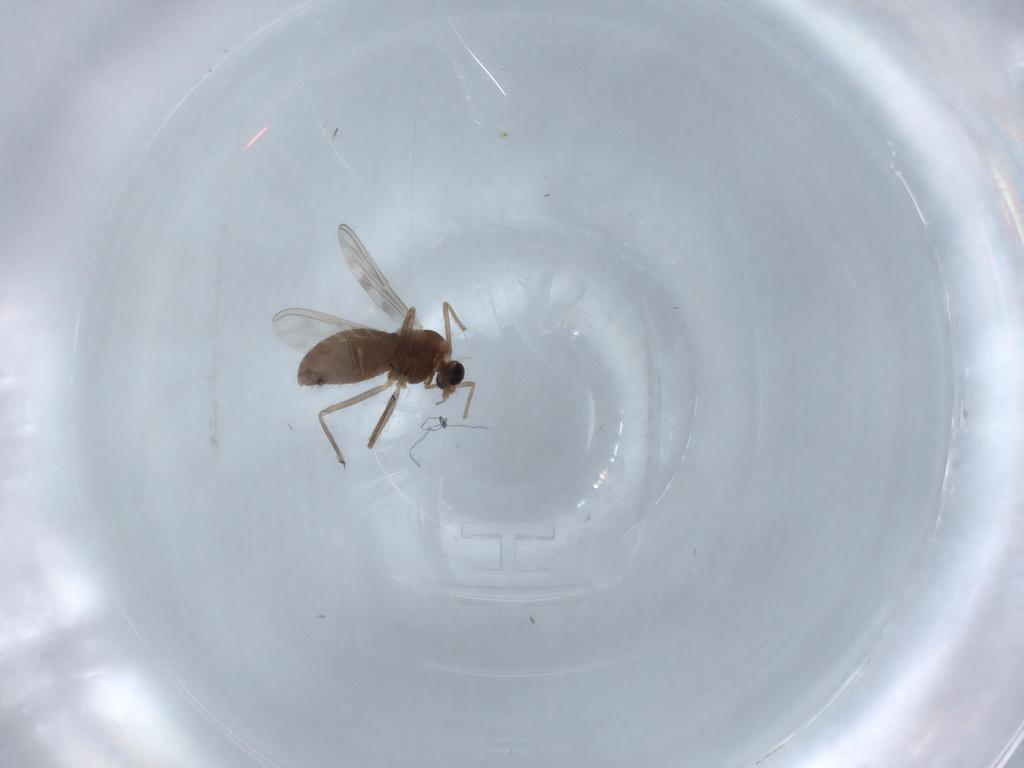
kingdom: Animalia
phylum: Arthropoda
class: Insecta
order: Diptera
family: Chironomidae
